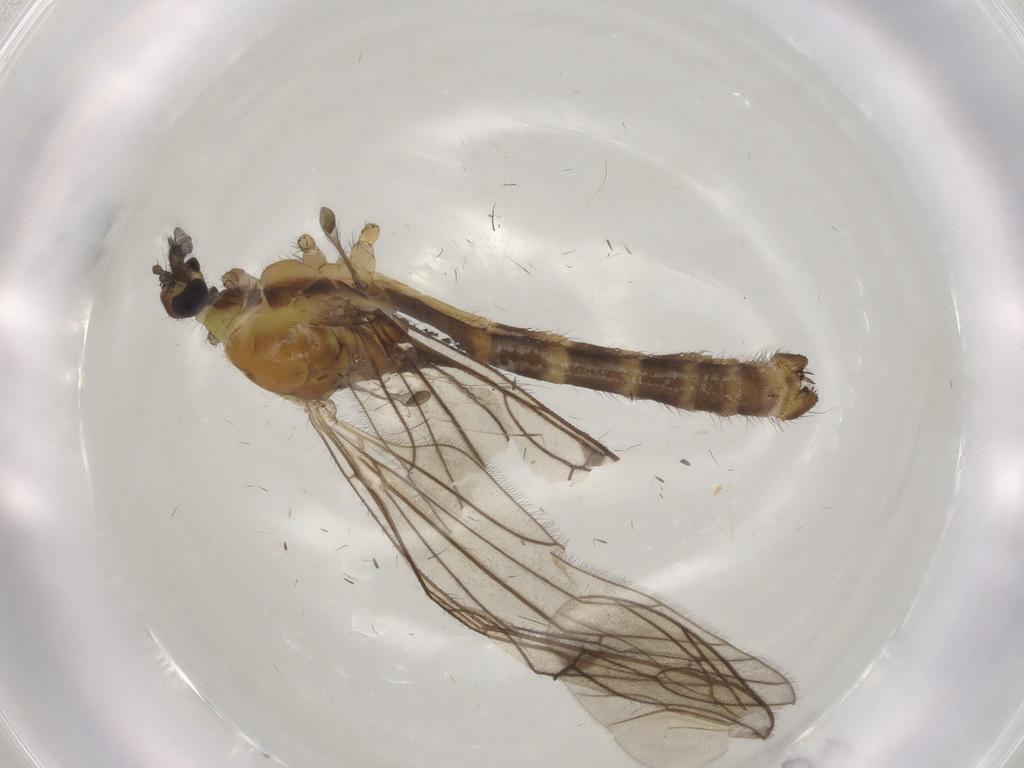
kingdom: Animalia
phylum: Arthropoda
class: Insecta
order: Diptera
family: Limoniidae
